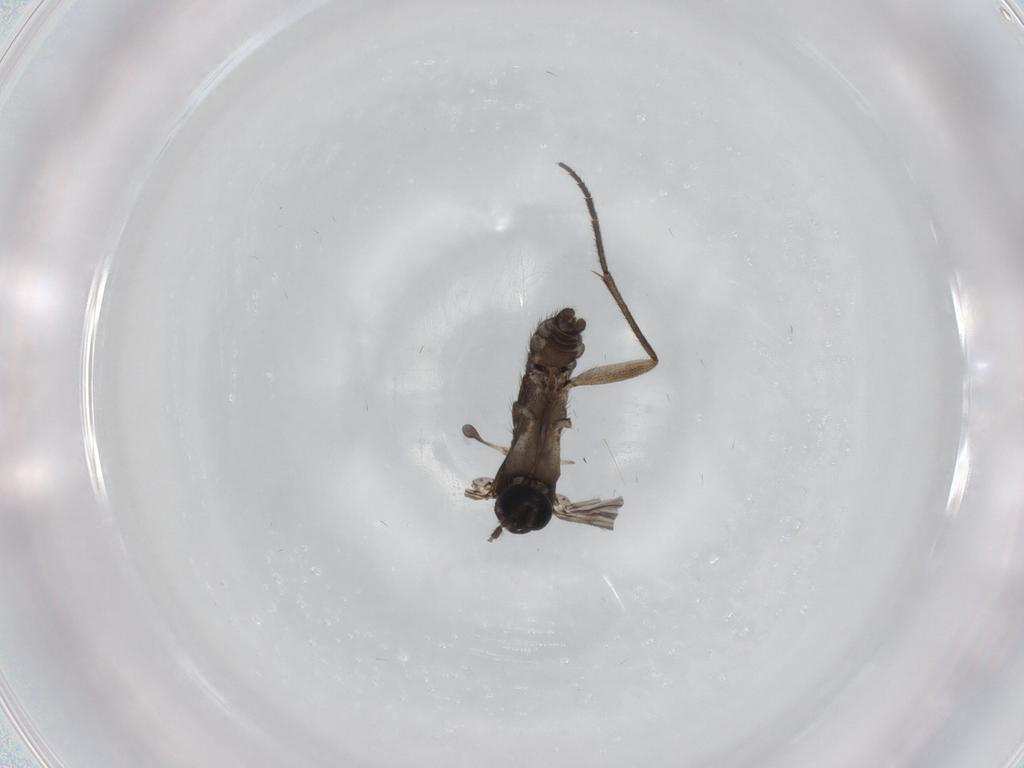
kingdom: Animalia
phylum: Arthropoda
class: Insecta
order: Diptera
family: Sciaridae
